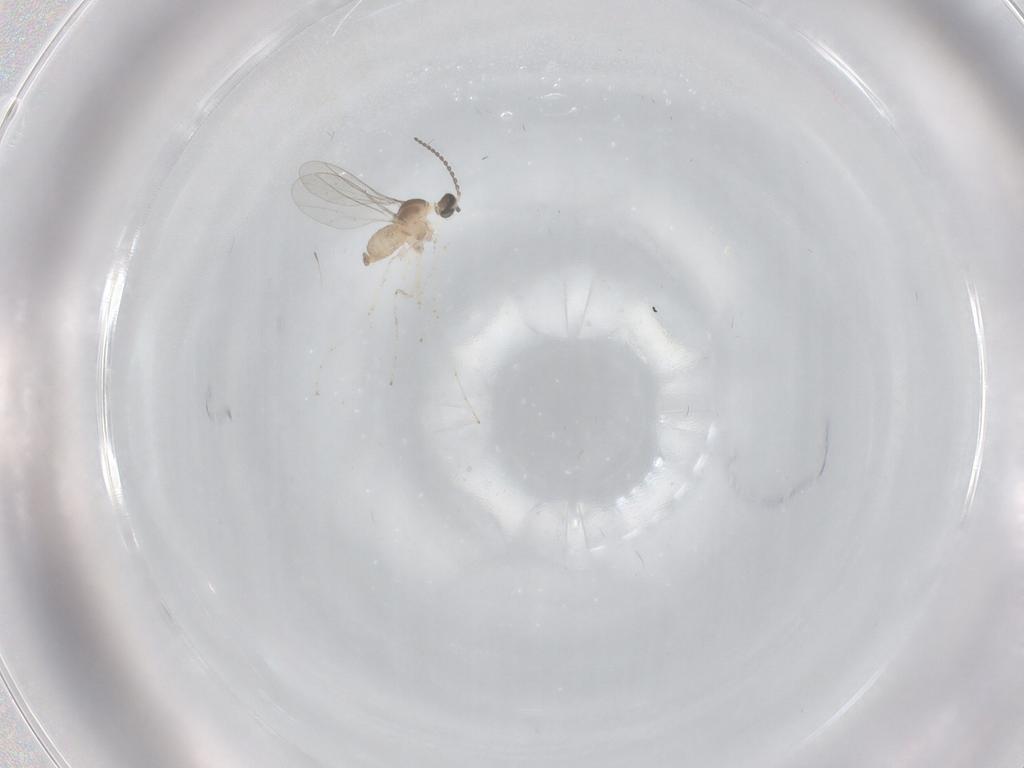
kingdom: Animalia
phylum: Arthropoda
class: Insecta
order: Diptera
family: Cecidomyiidae
